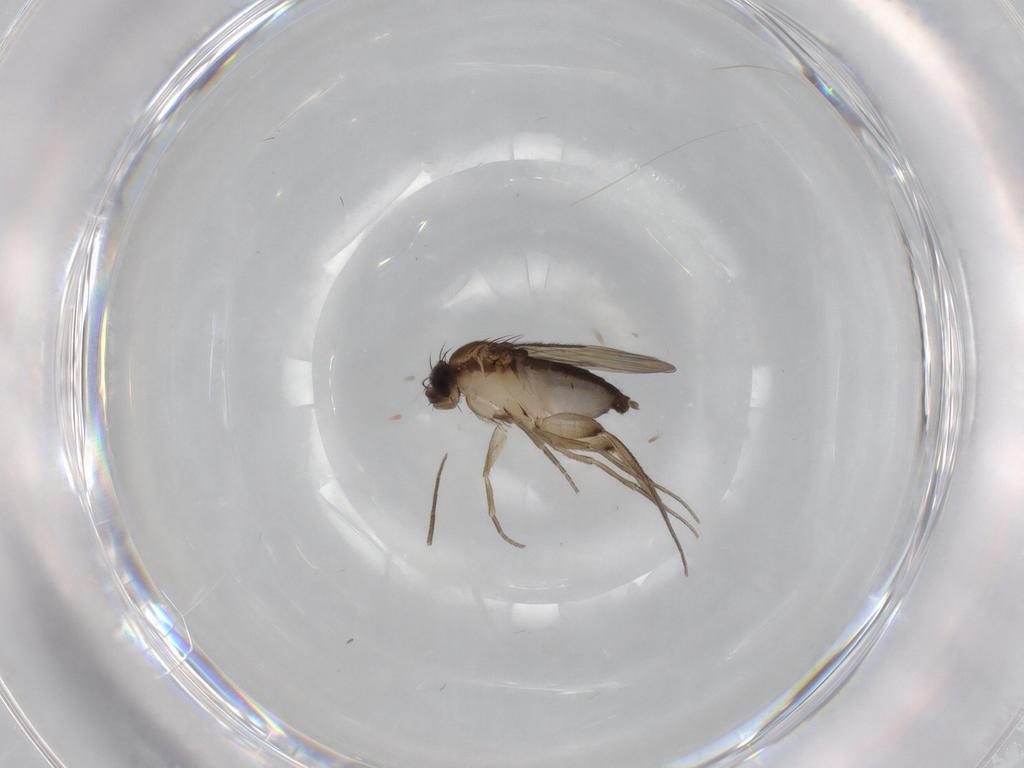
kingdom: Animalia
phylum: Arthropoda
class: Insecta
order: Diptera
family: Phoridae
